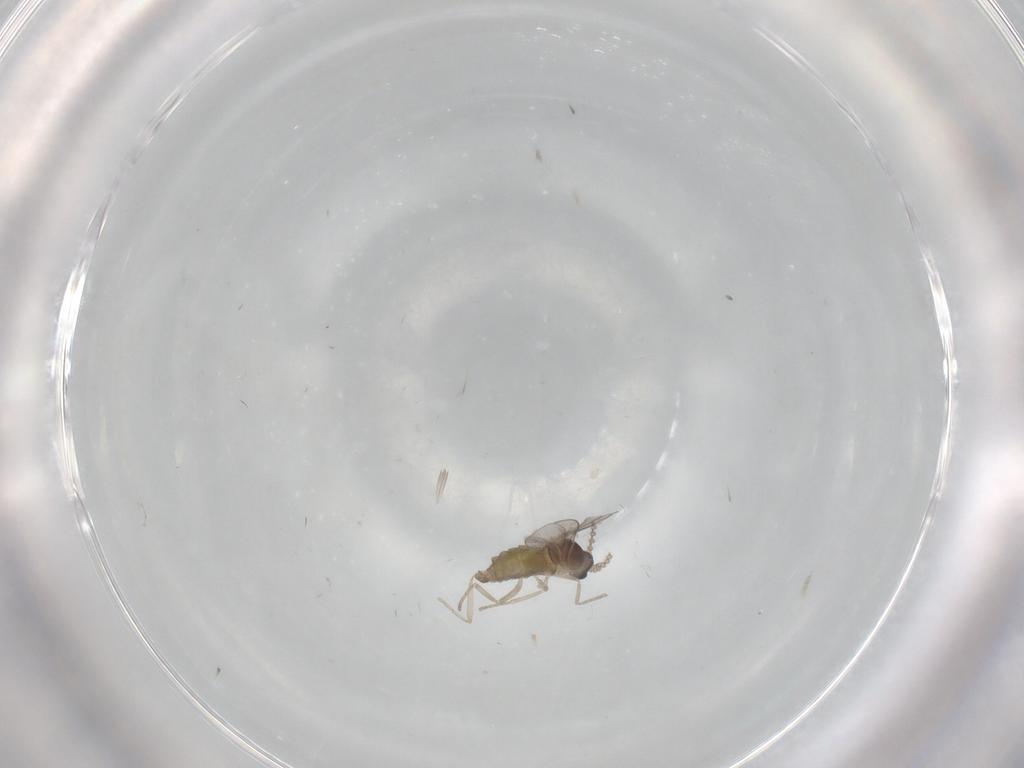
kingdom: Animalia
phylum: Arthropoda
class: Insecta
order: Diptera
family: Cecidomyiidae
